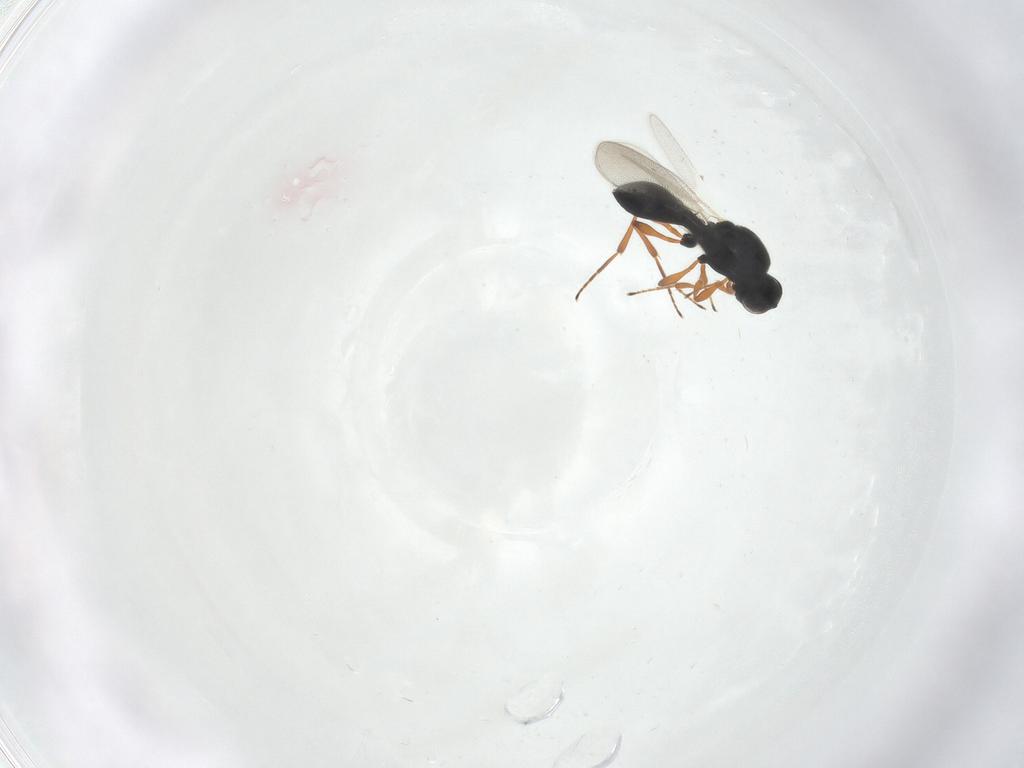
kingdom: Animalia
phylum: Arthropoda
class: Insecta
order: Hymenoptera
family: Platygastridae
